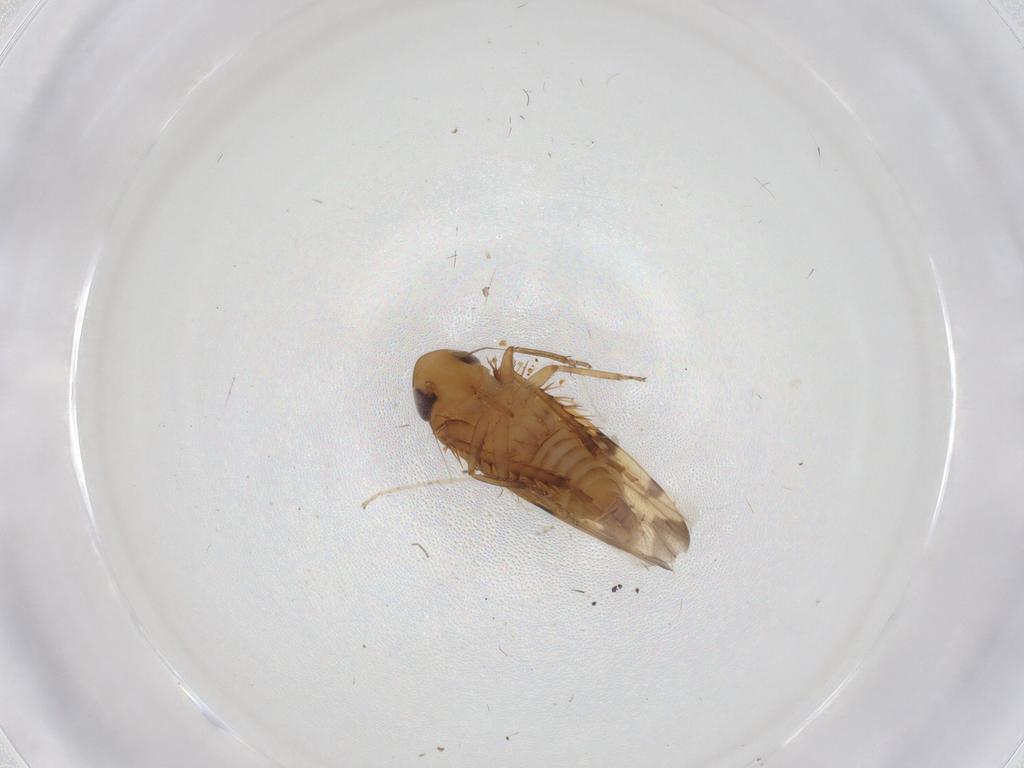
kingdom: Animalia
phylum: Arthropoda
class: Insecta
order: Hemiptera
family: Cicadellidae
